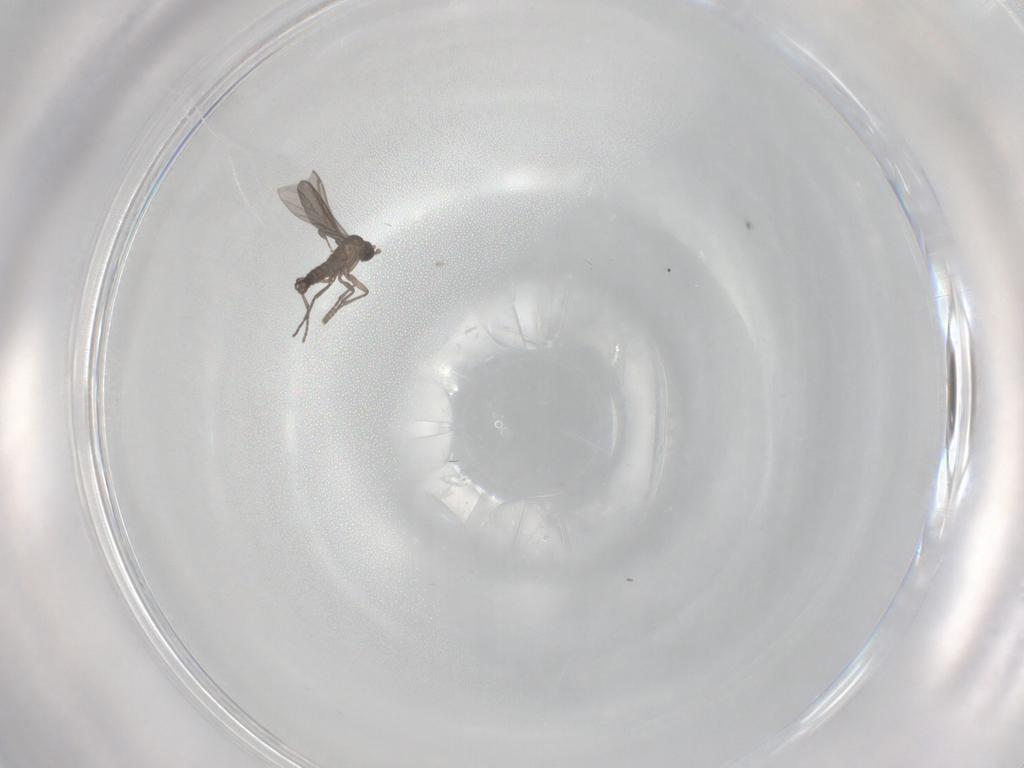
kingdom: Animalia
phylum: Arthropoda
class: Insecta
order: Diptera
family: Sciaridae
